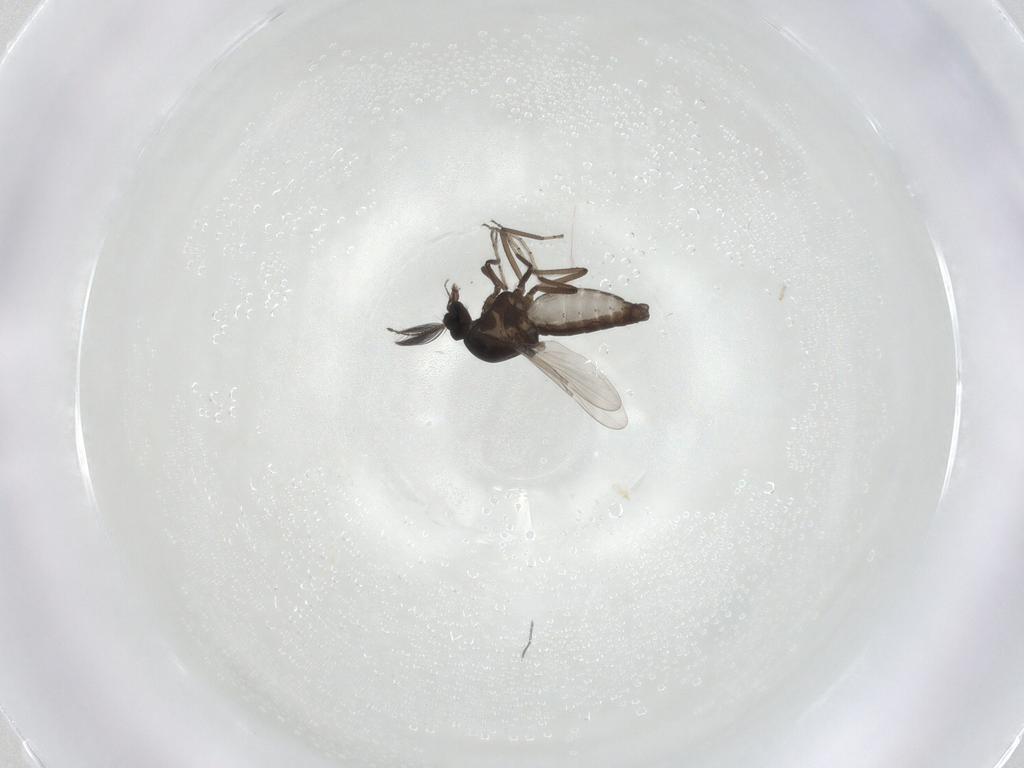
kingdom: Animalia
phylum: Arthropoda
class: Insecta
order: Diptera
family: Ceratopogonidae
